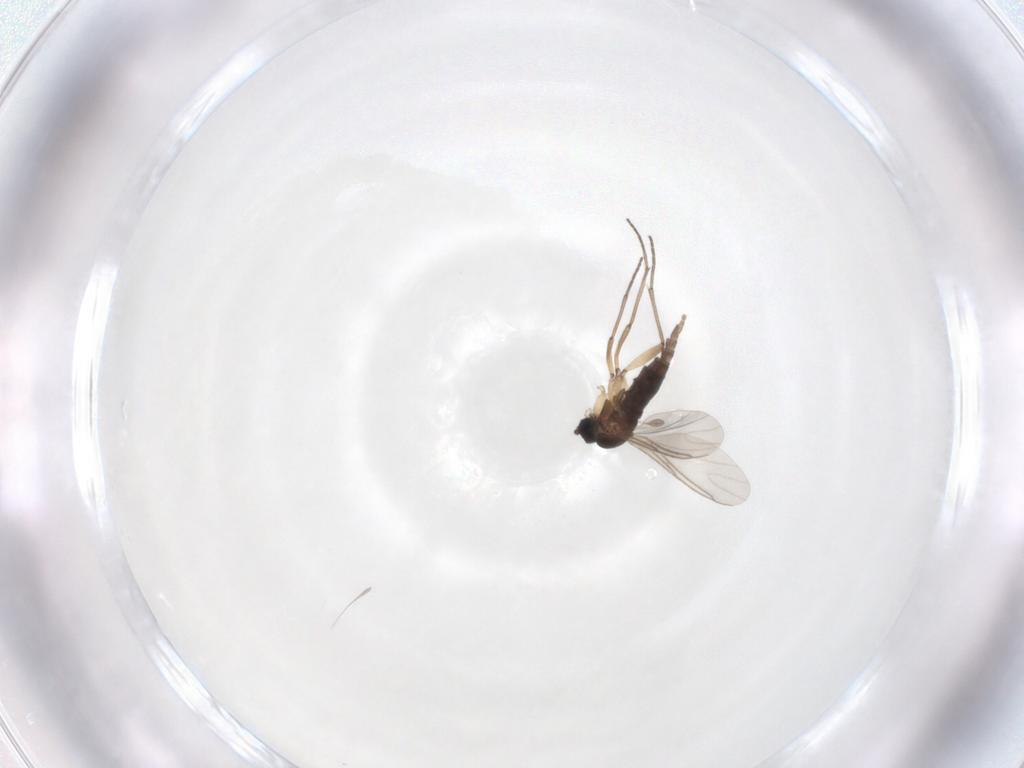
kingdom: Animalia
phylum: Arthropoda
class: Insecta
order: Diptera
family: Sciaridae
